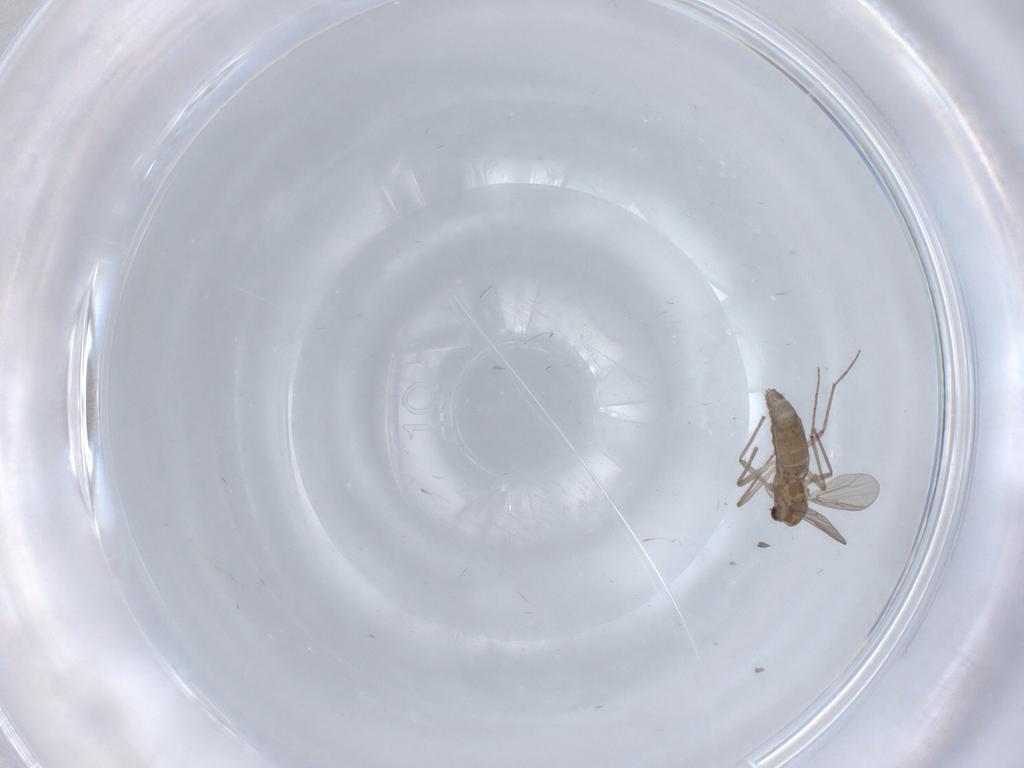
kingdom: Animalia
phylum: Arthropoda
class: Insecta
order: Diptera
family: Chironomidae
